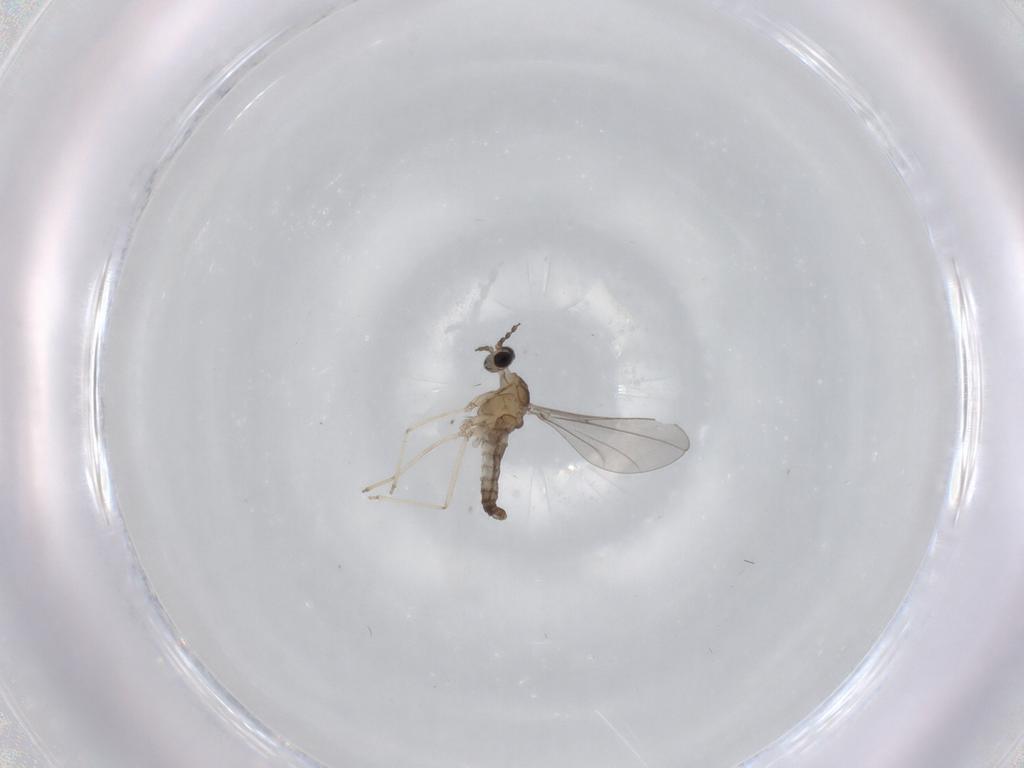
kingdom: Animalia
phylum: Arthropoda
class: Insecta
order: Diptera
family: Cecidomyiidae
